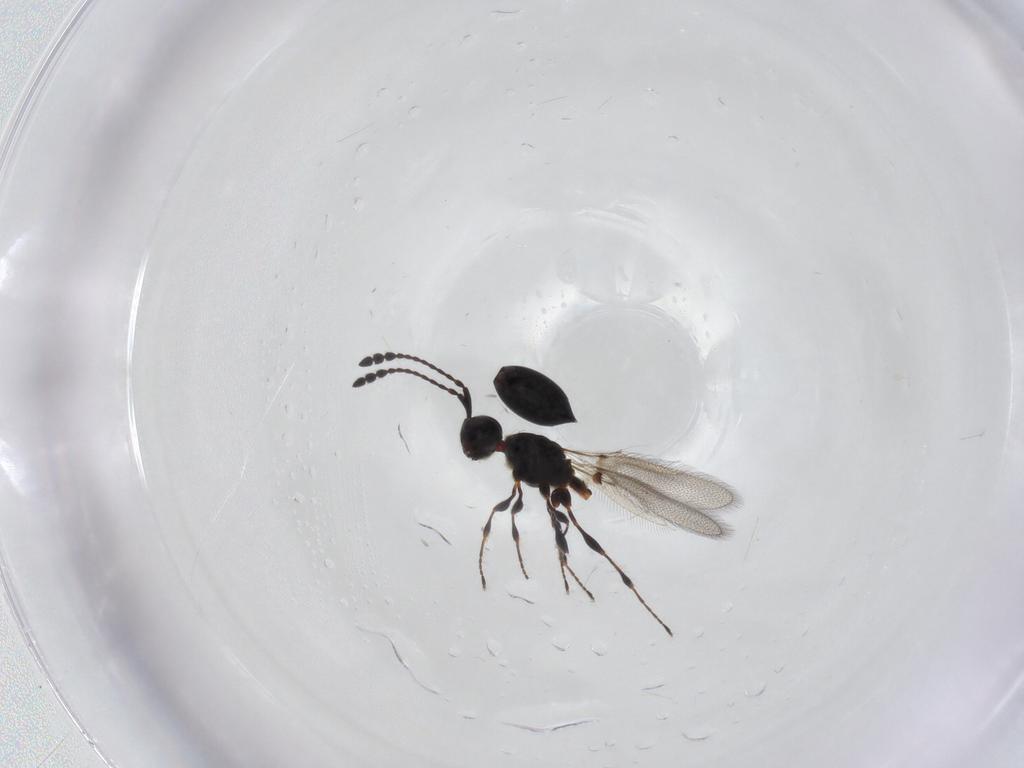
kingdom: Animalia
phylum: Arthropoda
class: Insecta
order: Hymenoptera
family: Diapriidae
